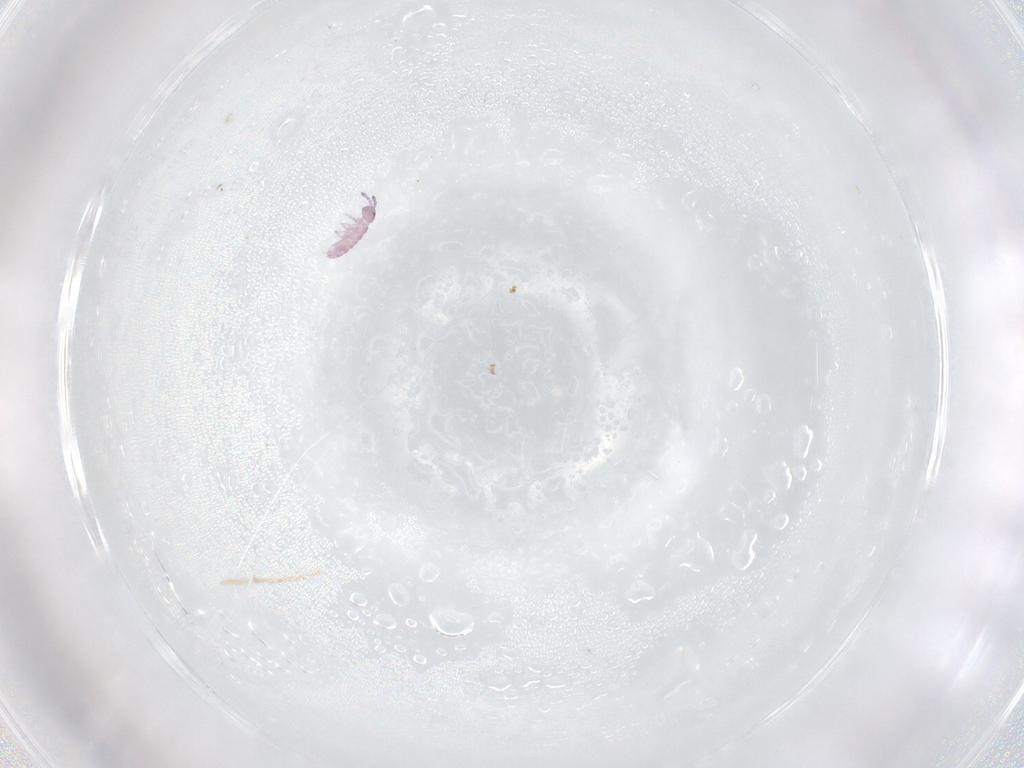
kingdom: Animalia
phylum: Arthropoda
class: Collembola
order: Entomobryomorpha
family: Isotomidae
